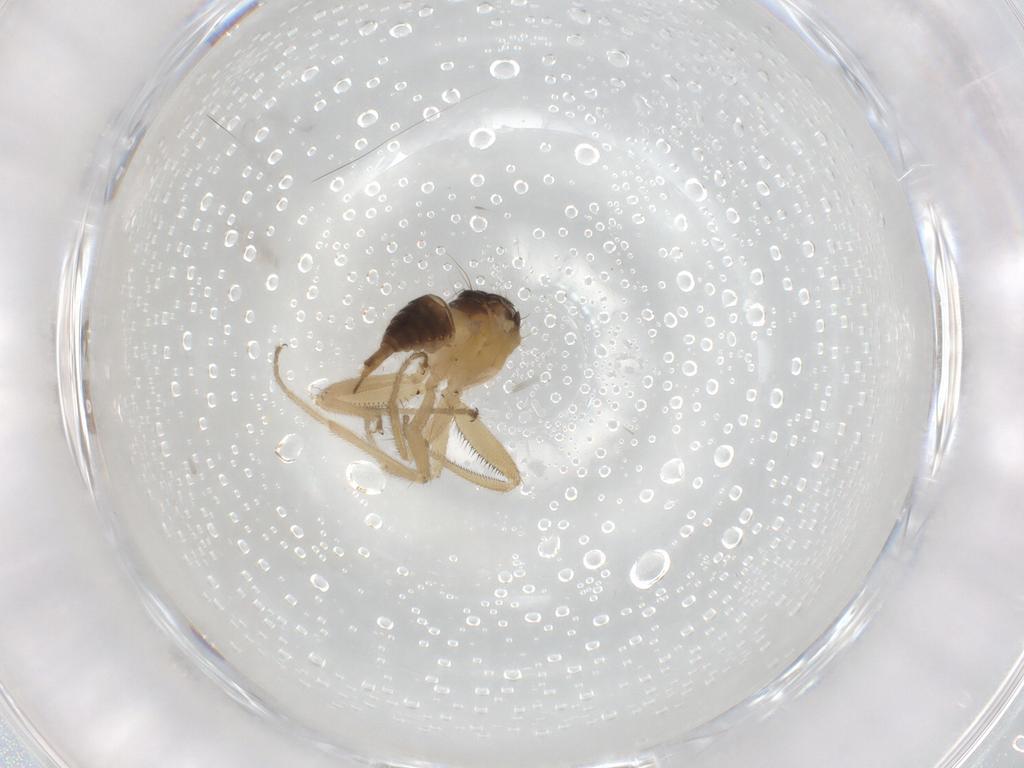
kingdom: Animalia
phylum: Arthropoda
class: Insecta
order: Diptera
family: Hybotidae
